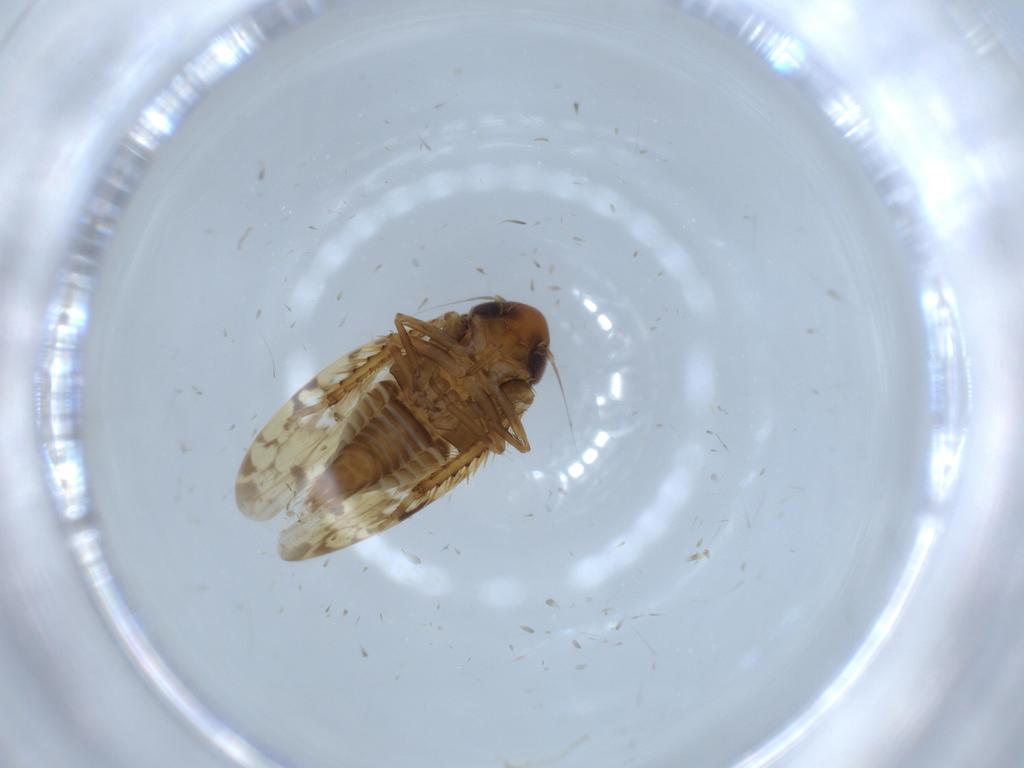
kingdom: Animalia
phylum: Arthropoda
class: Insecta
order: Hemiptera
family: Cicadellidae
